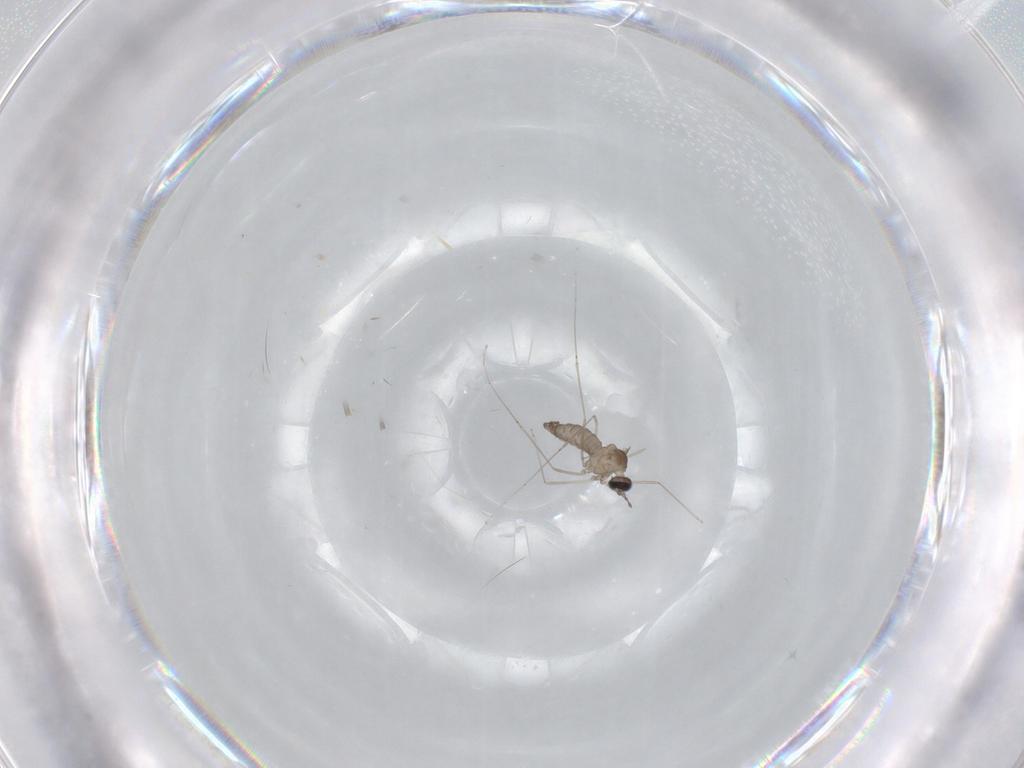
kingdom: Animalia
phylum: Arthropoda
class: Insecta
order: Diptera
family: Cecidomyiidae
